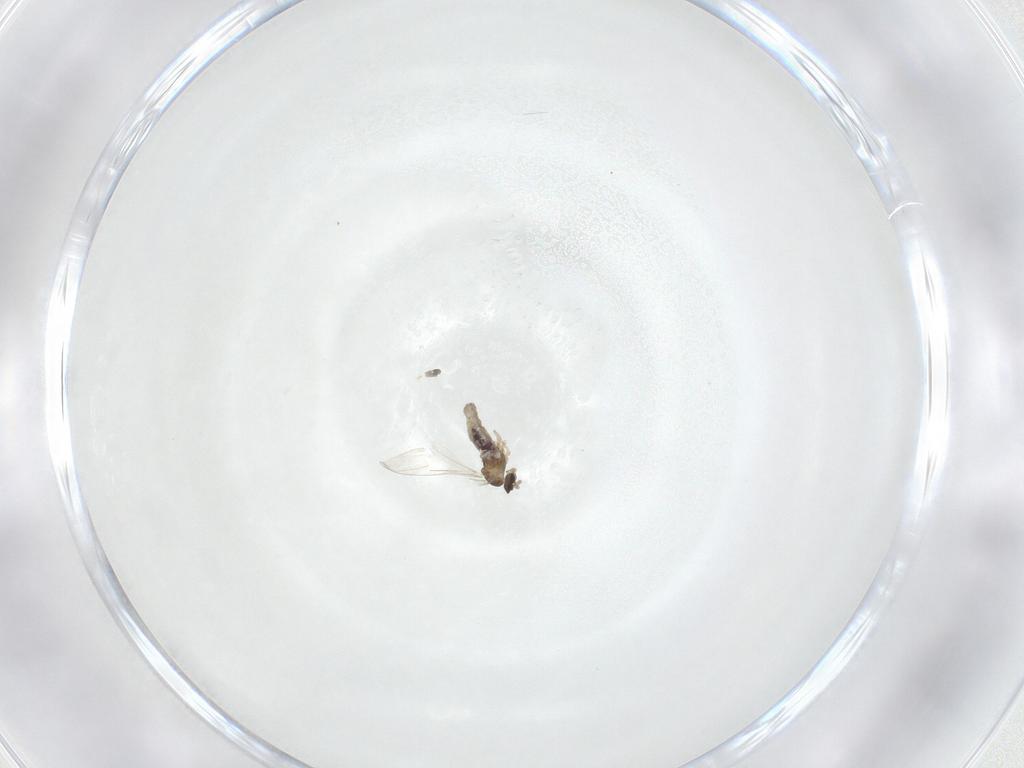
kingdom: Animalia
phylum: Arthropoda
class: Insecta
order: Diptera
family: Cecidomyiidae
